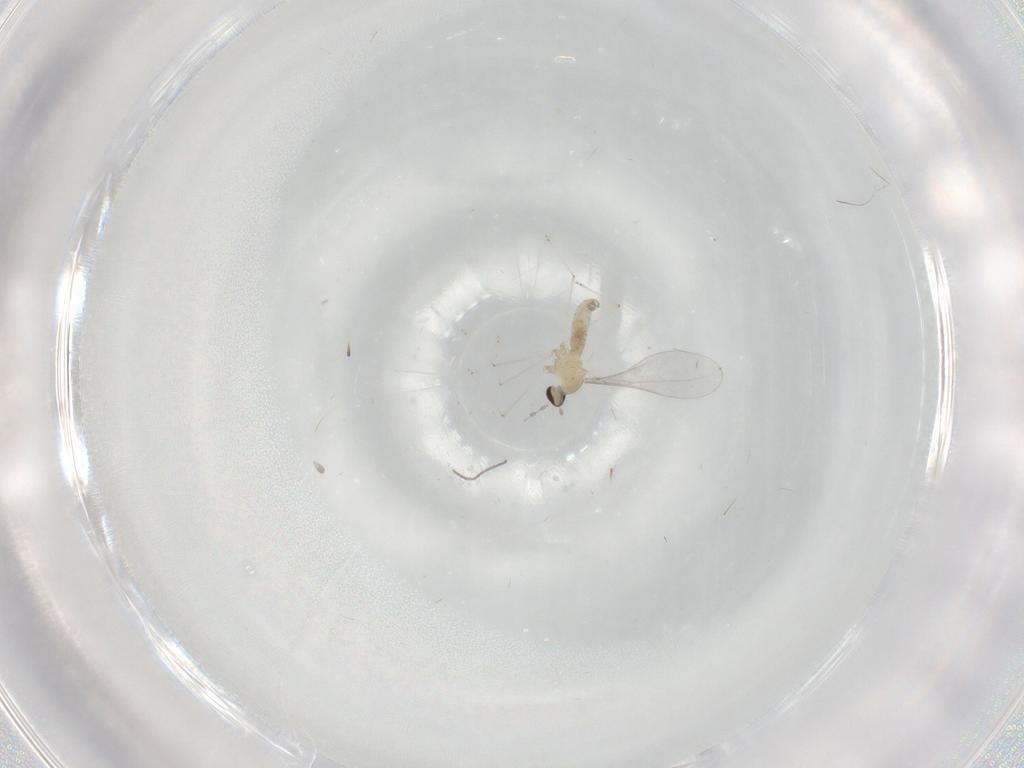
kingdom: Animalia
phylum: Arthropoda
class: Insecta
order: Diptera
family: Cecidomyiidae
